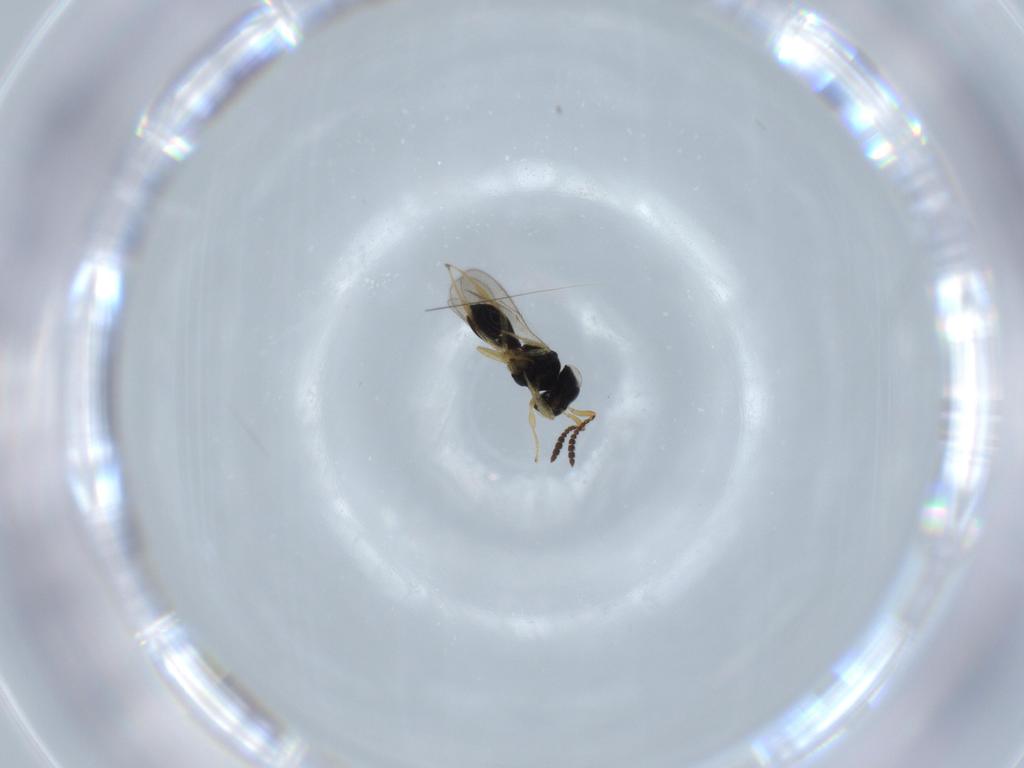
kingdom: Animalia
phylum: Arthropoda
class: Insecta
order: Hymenoptera
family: Scelionidae
